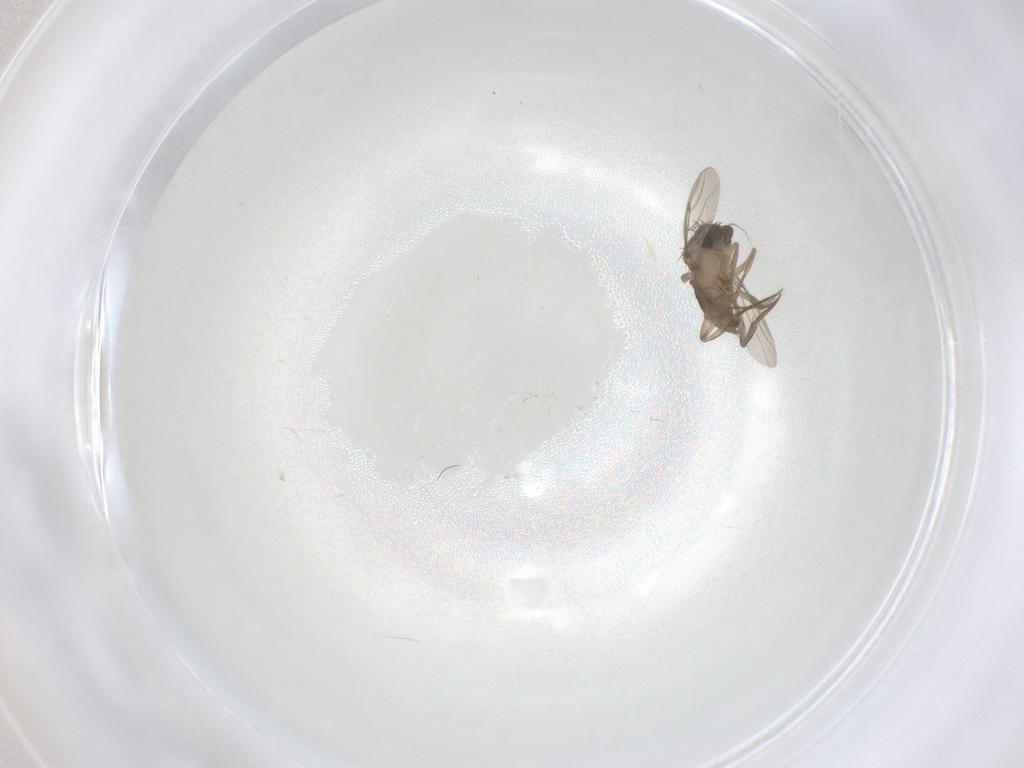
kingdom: Animalia
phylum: Arthropoda
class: Insecta
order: Diptera
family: Phoridae
